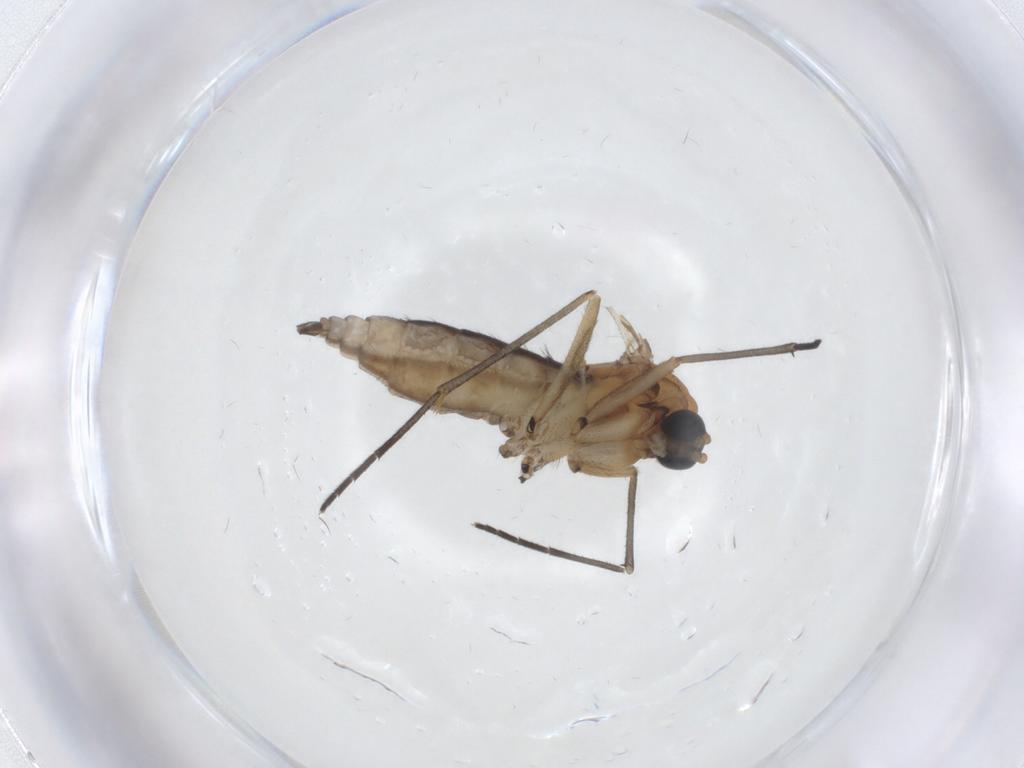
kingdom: Animalia
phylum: Arthropoda
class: Insecta
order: Diptera
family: Sciaridae
